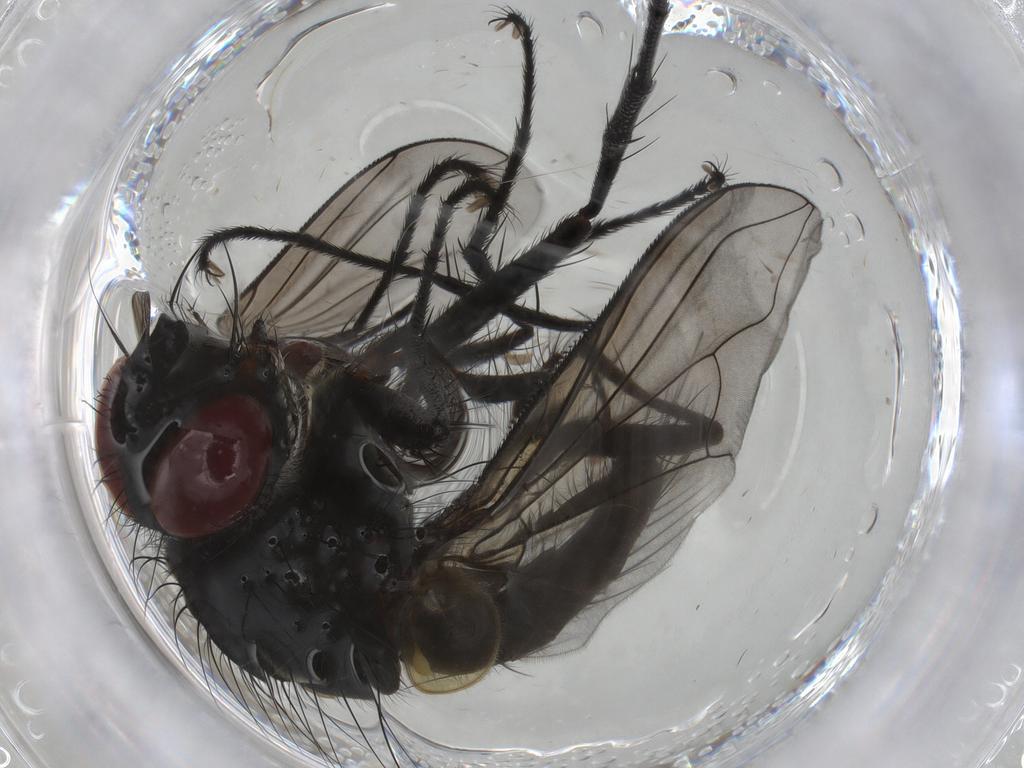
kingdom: Animalia
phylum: Arthropoda
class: Insecta
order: Diptera
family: Tachinidae
